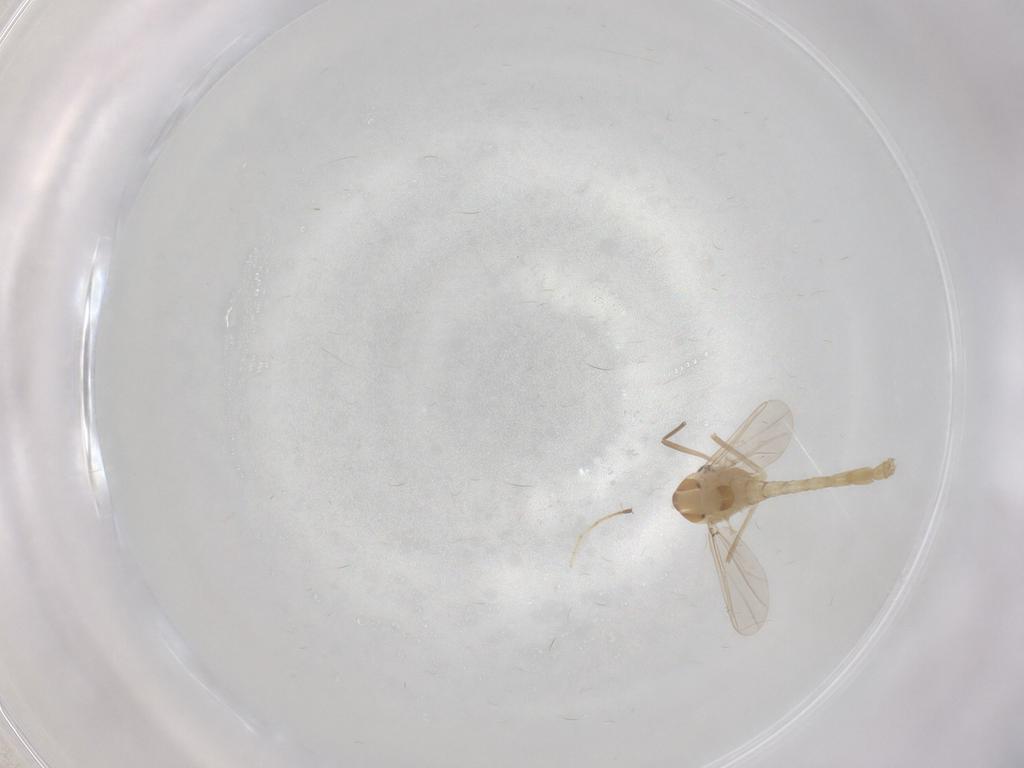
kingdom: Animalia
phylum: Arthropoda
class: Insecta
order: Diptera
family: Chironomidae
